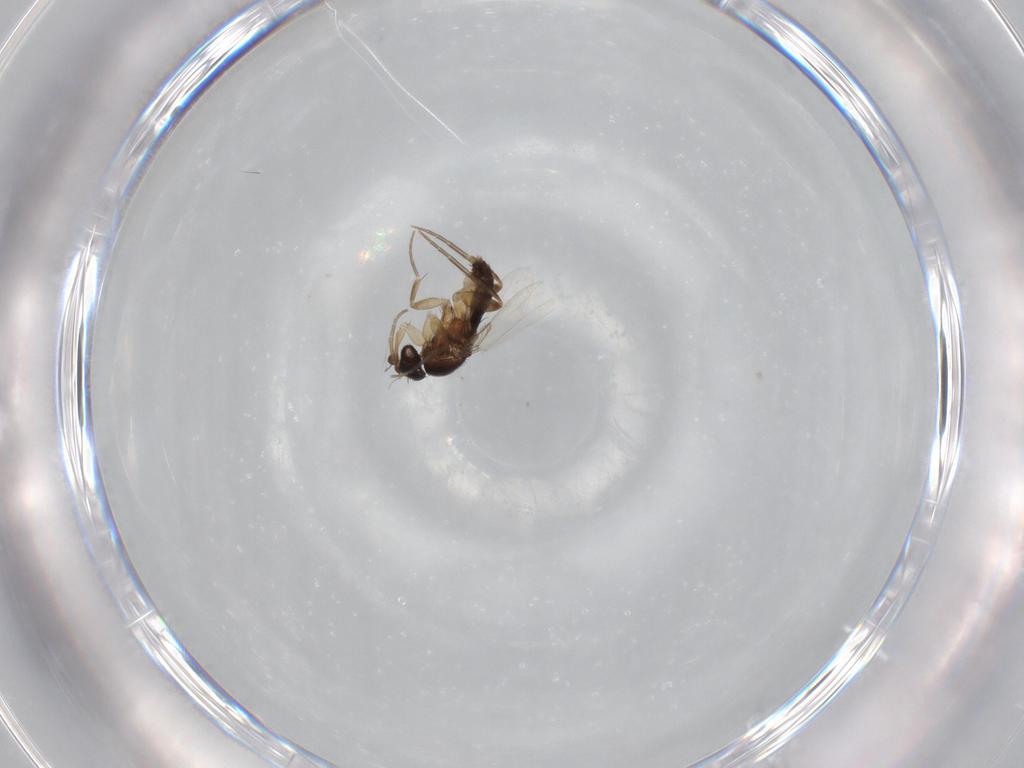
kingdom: Animalia
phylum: Arthropoda
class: Insecta
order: Diptera
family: Phoridae
